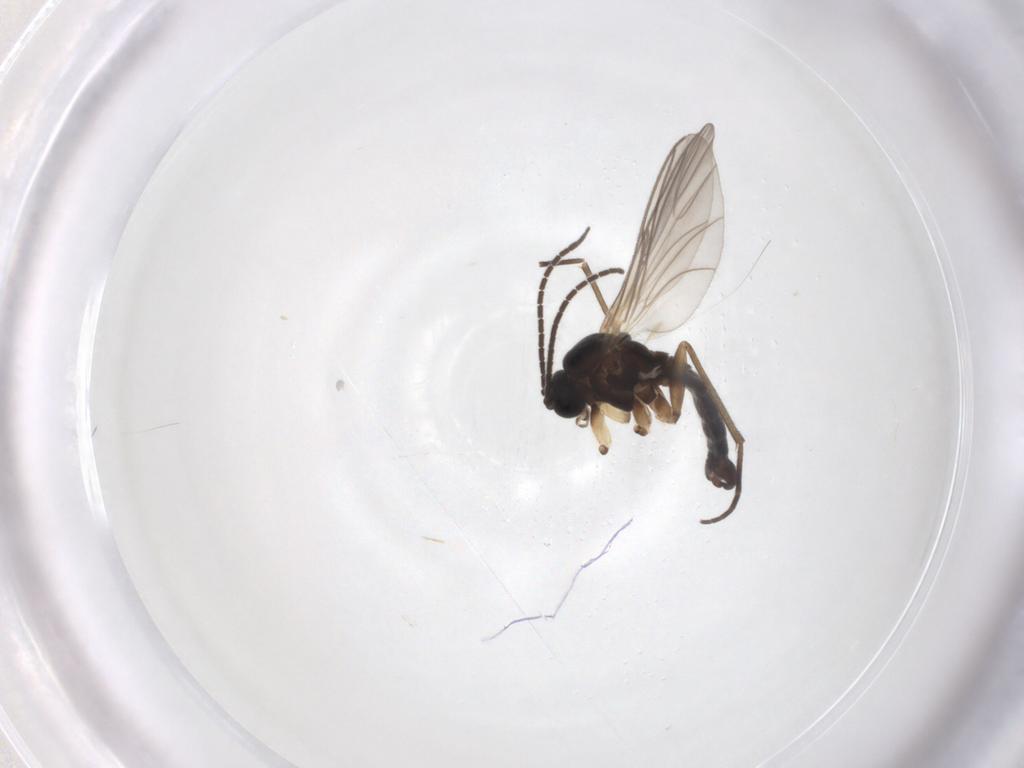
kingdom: Animalia
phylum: Arthropoda
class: Insecta
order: Diptera
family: Sciaridae
